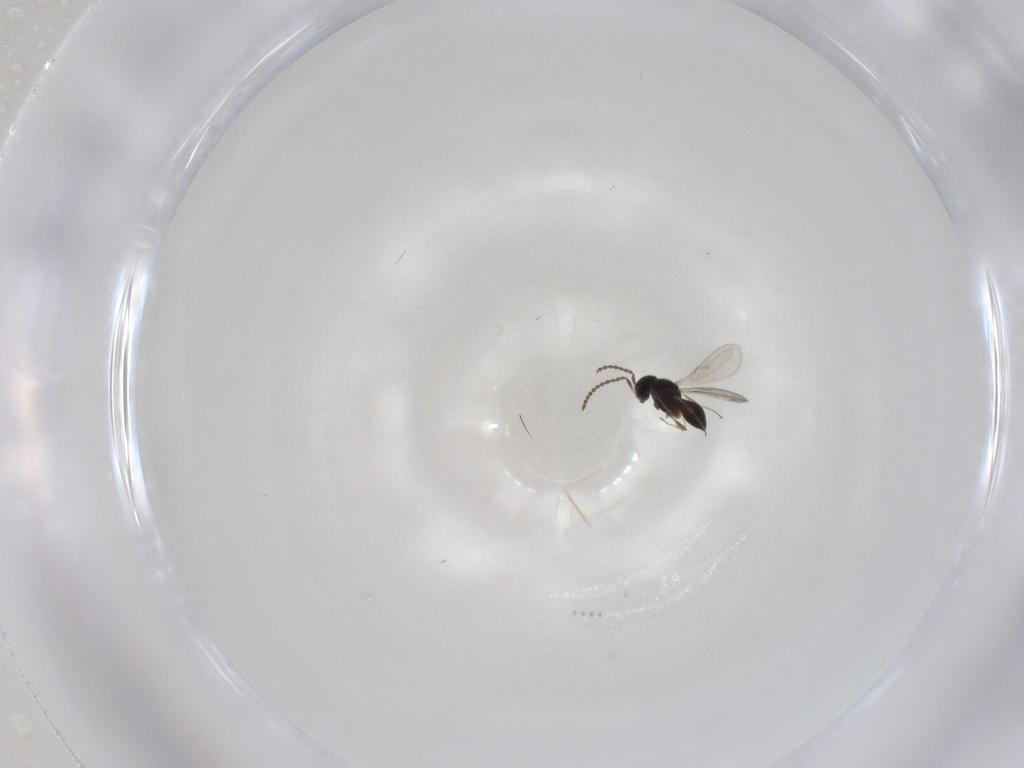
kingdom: Animalia
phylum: Arthropoda
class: Insecta
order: Hymenoptera
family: Scelionidae
